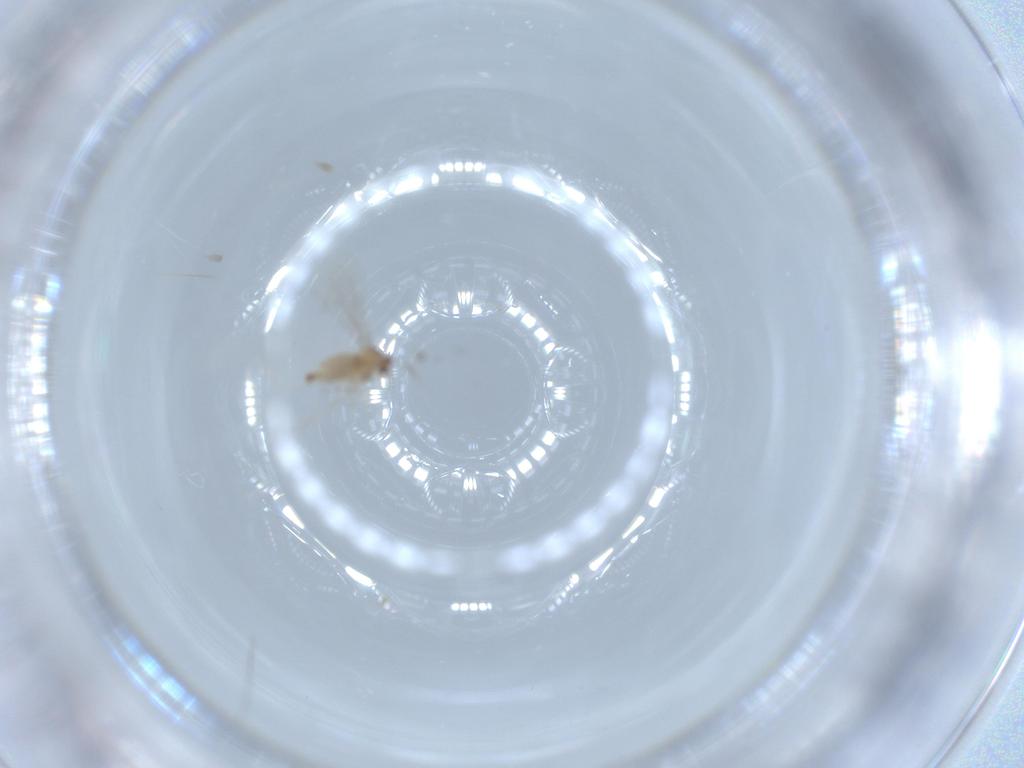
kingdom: Animalia
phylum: Arthropoda
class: Insecta
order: Diptera
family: Cecidomyiidae
